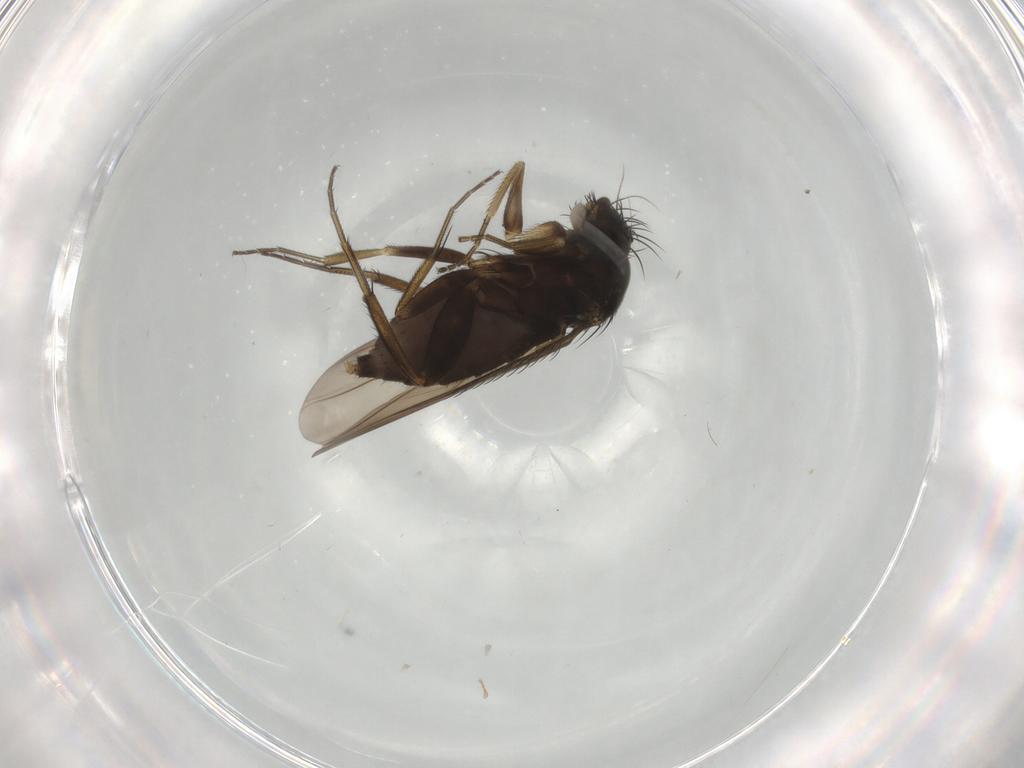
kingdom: Animalia
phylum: Arthropoda
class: Insecta
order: Diptera
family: Phoridae
